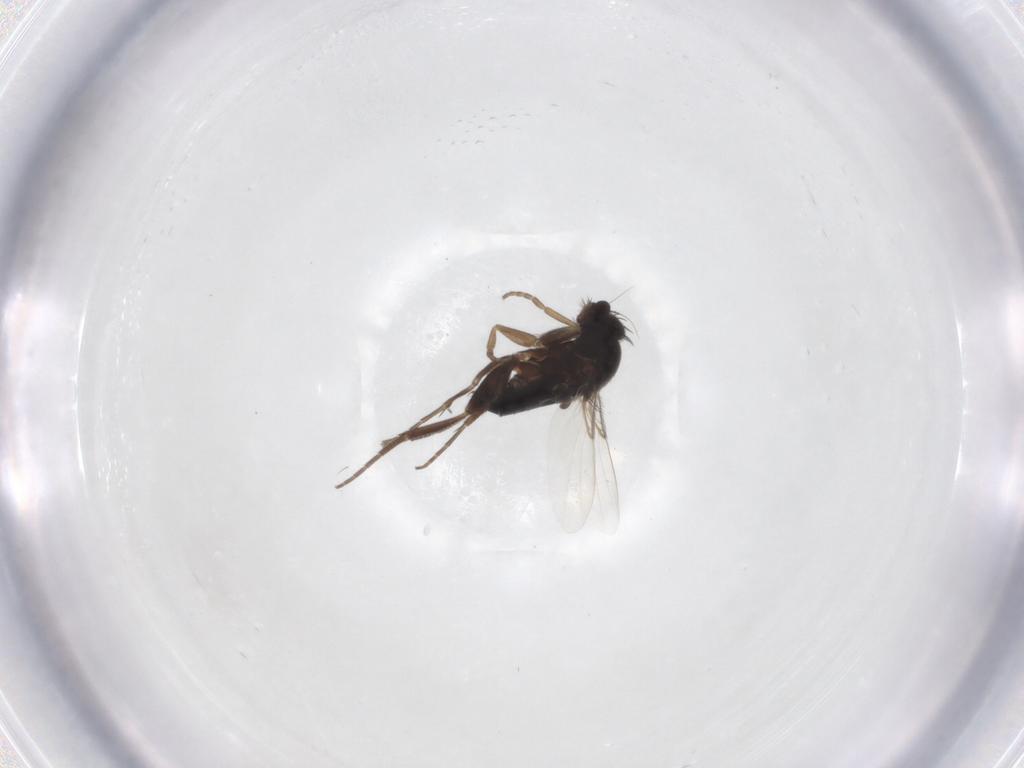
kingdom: Animalia
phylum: Arthropoda
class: Insecta
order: Diptera
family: Phoridae
